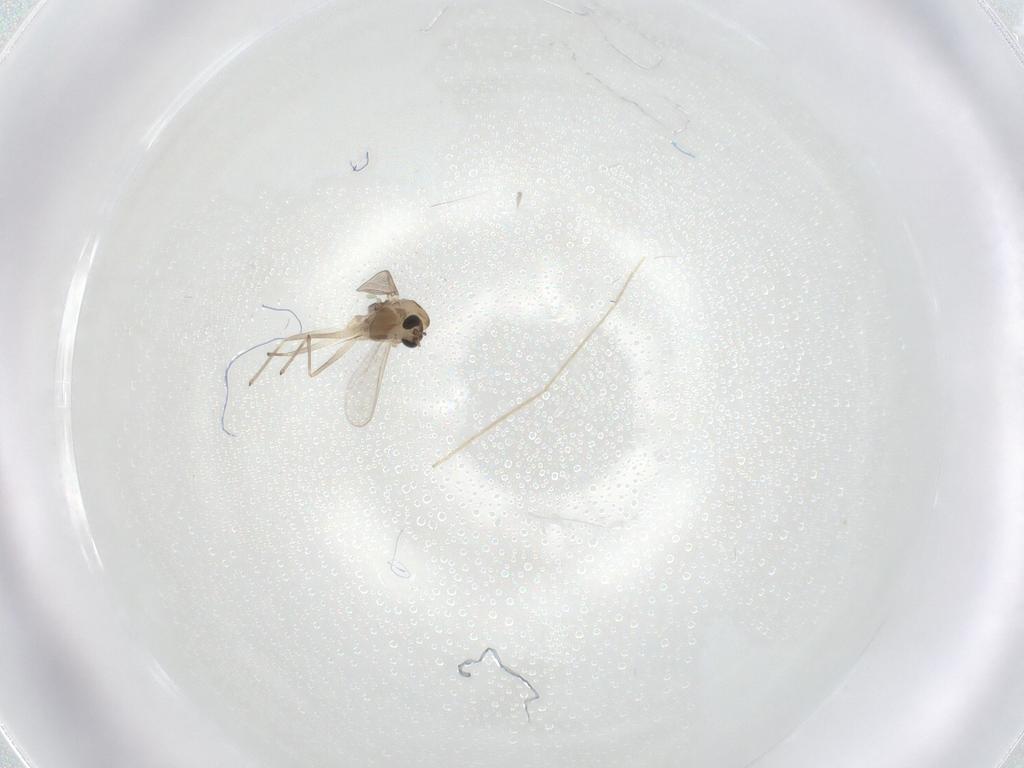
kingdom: Animalia
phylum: Arthropoda
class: Insecta
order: Diptera
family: Chironomidae
